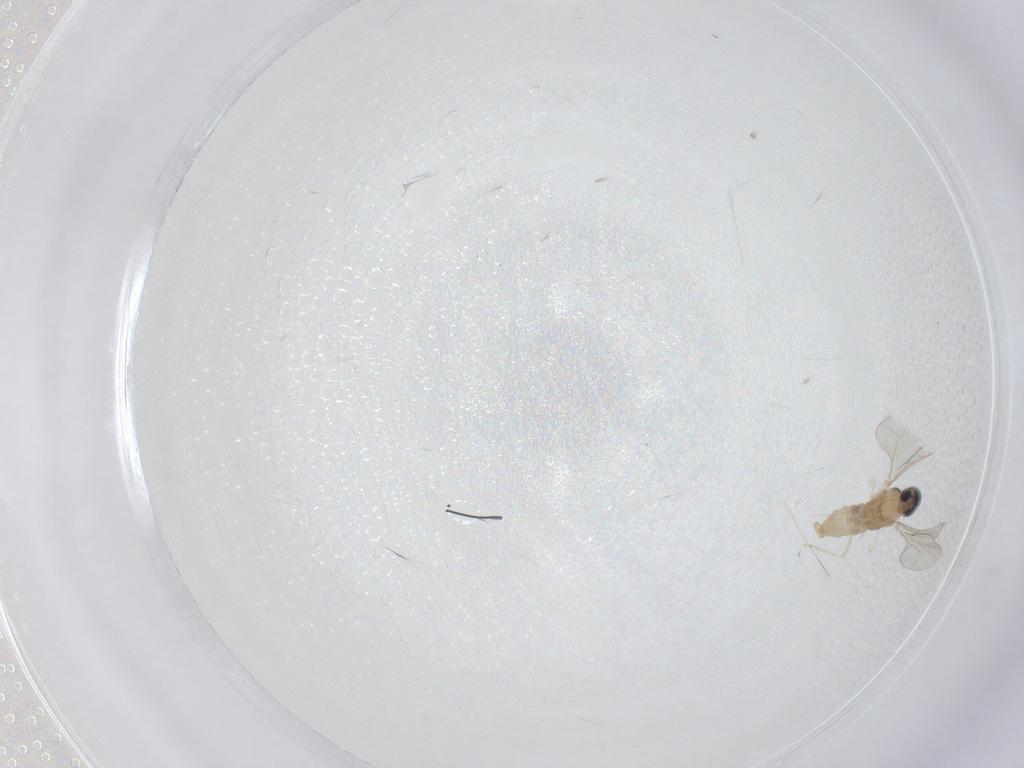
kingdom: Animalia
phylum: Arthropoda
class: Insecta
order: Diptera
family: Cecidomyiidae
